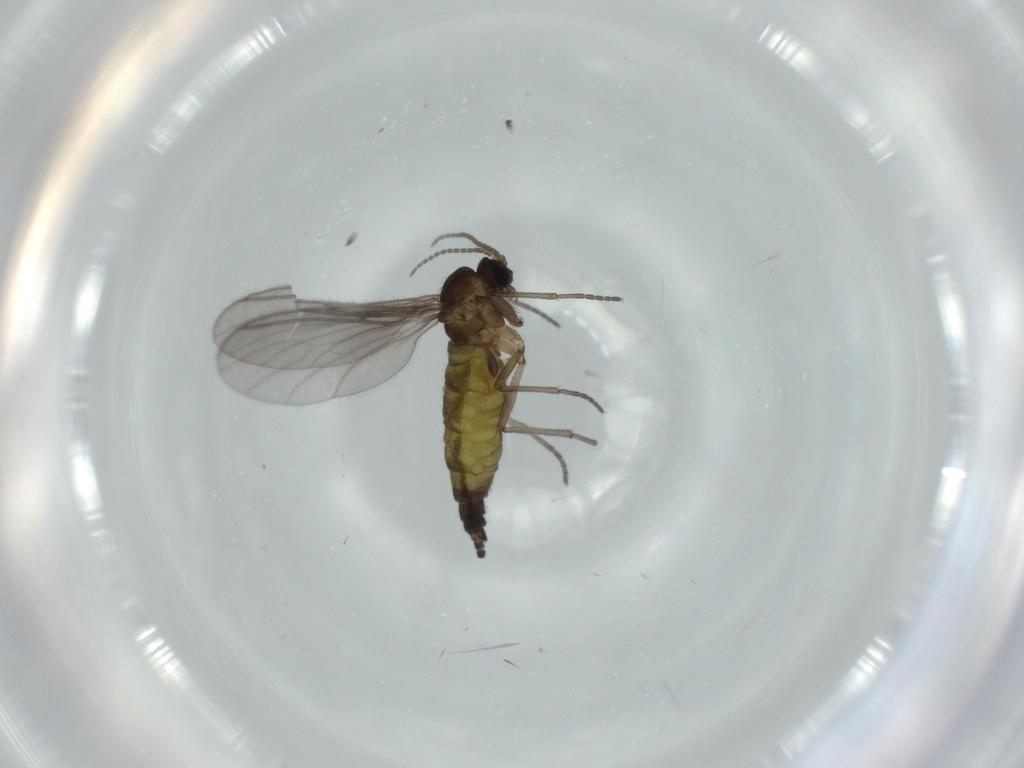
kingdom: Animalia
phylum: Arthropoda
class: Insecta
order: Diptera
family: Sciaridae
